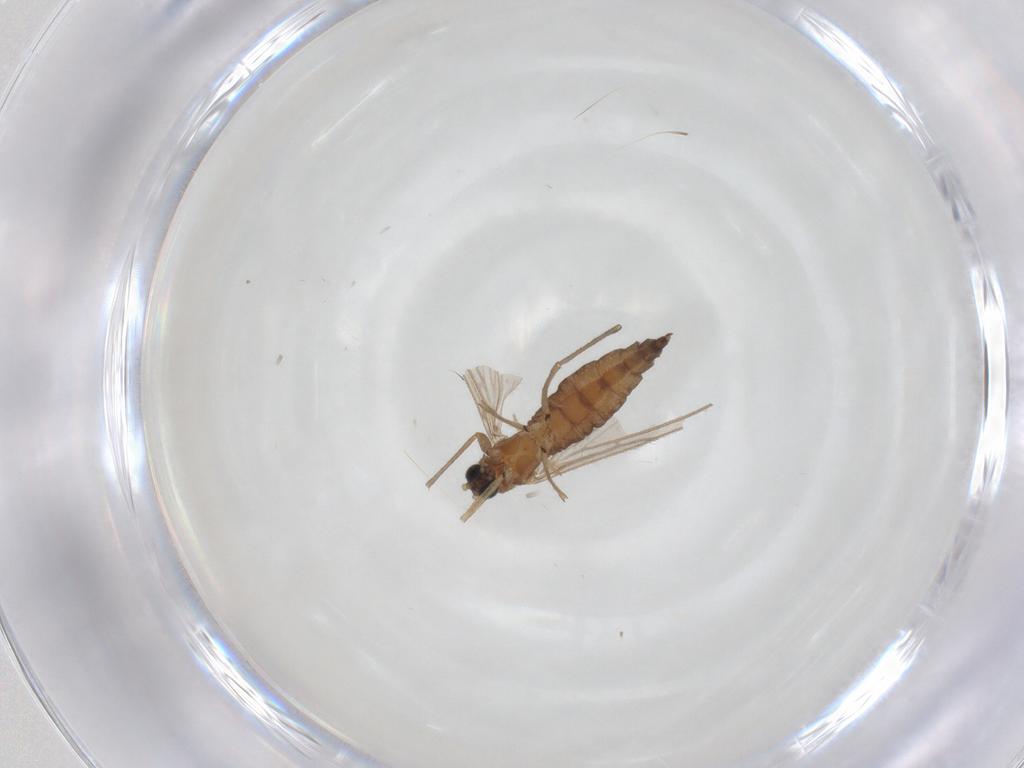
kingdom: Animalia
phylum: Arthropoda
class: Insecta
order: Diptera
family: Sciaridae
